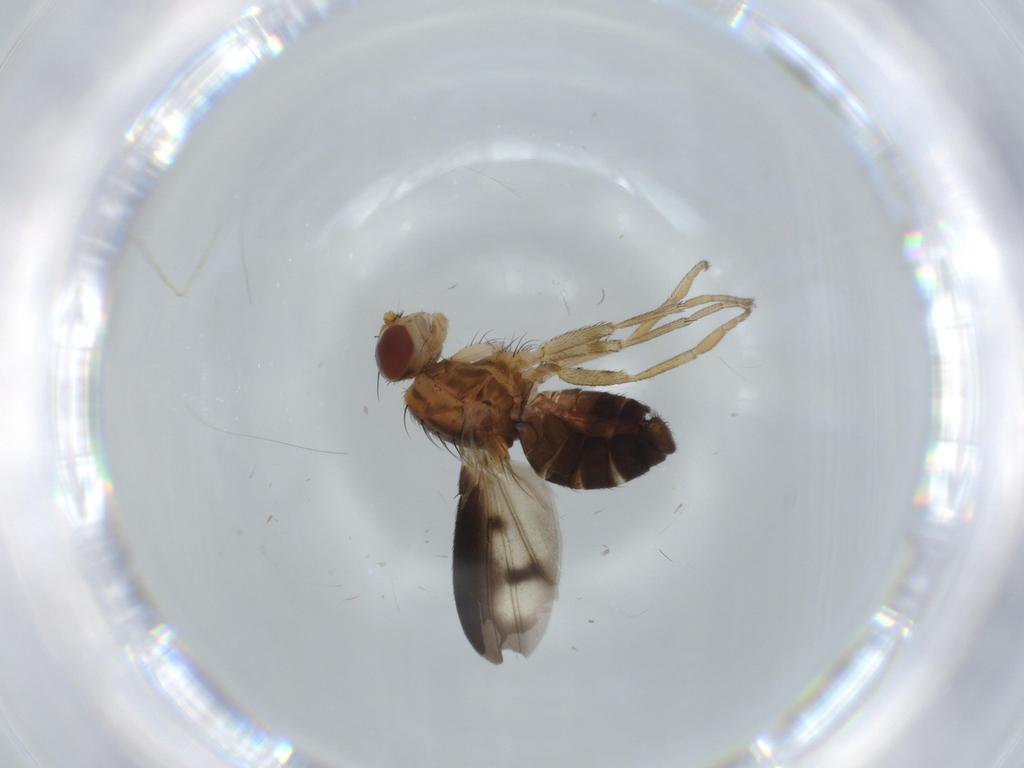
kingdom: Animalia
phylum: Arthropoda
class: Insecta
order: Diptera
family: Heleomyzidae
